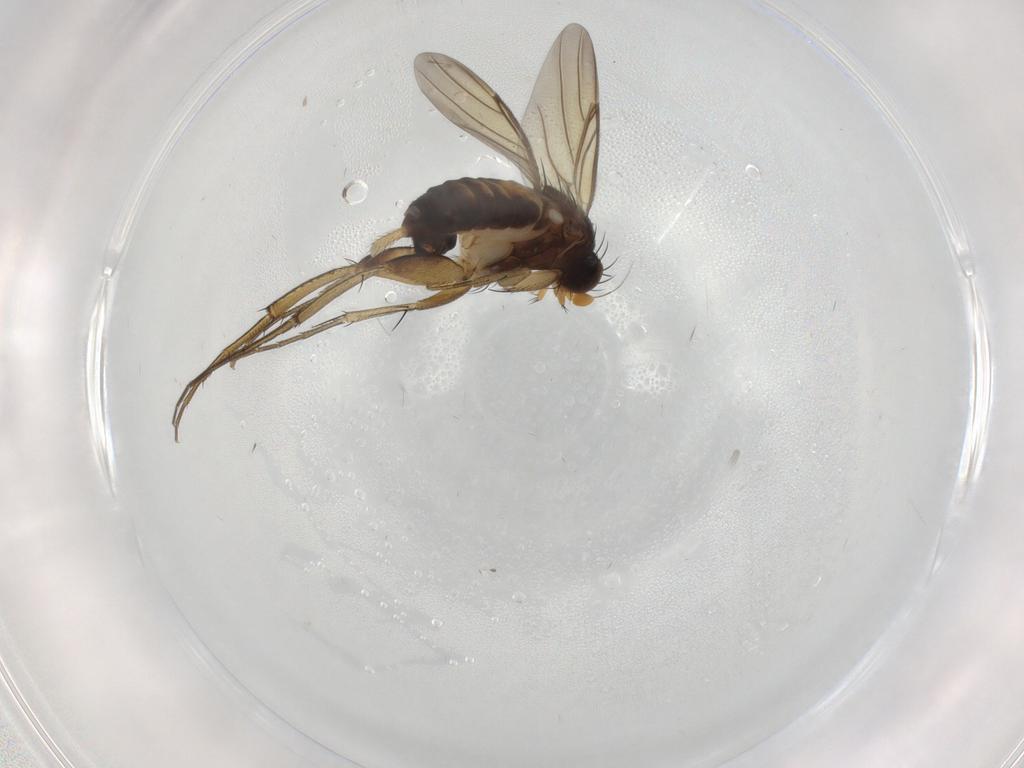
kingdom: Animalia
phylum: Arthropoda
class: Insecta
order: Diptera
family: Phoridae
